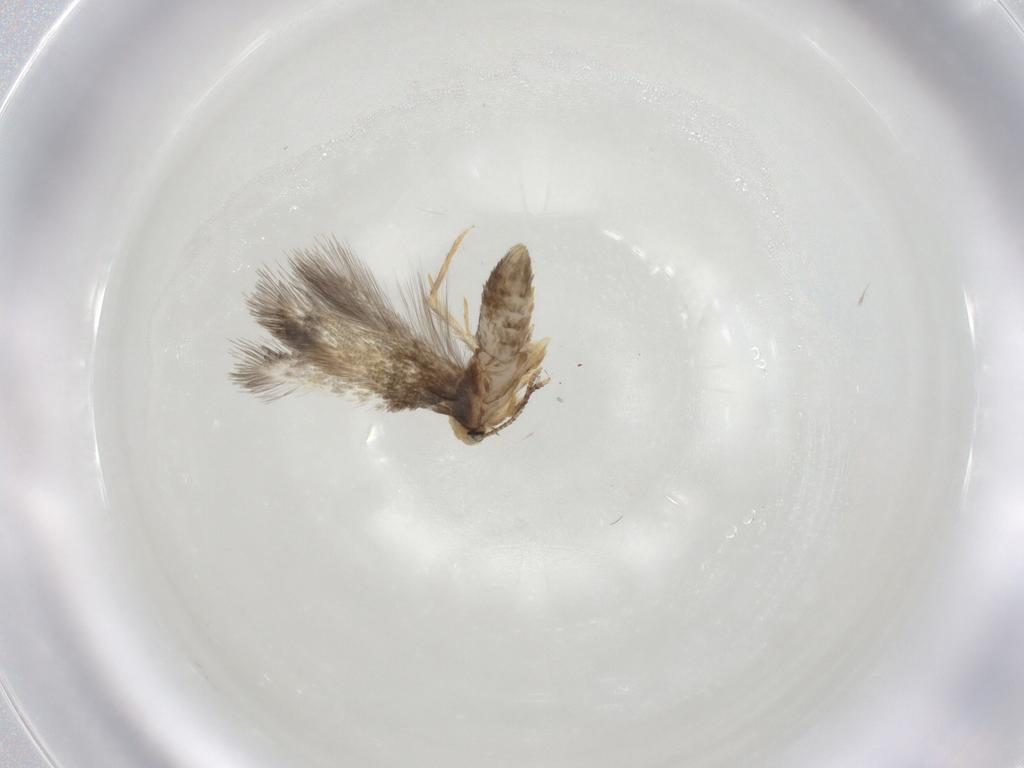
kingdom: Animalia
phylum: Arthropoda
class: Insecta
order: Lepidoptera
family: Nepticulidae
